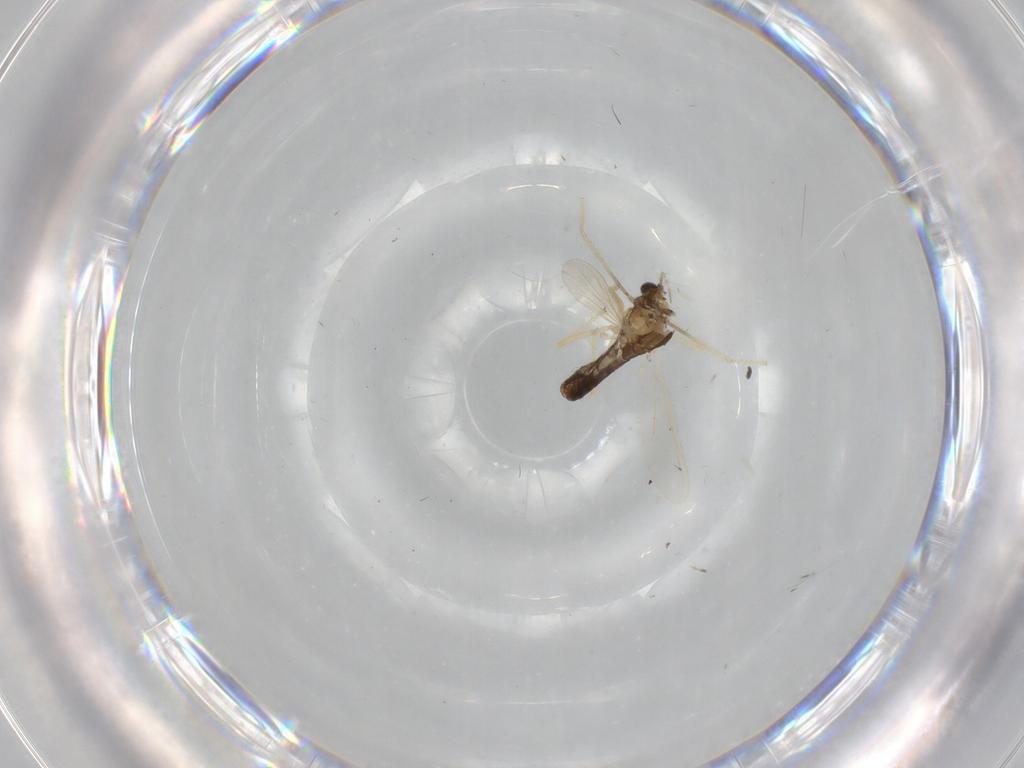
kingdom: Animalia
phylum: Arthropoda
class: Insecta
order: Diptera
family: Chironomidae
